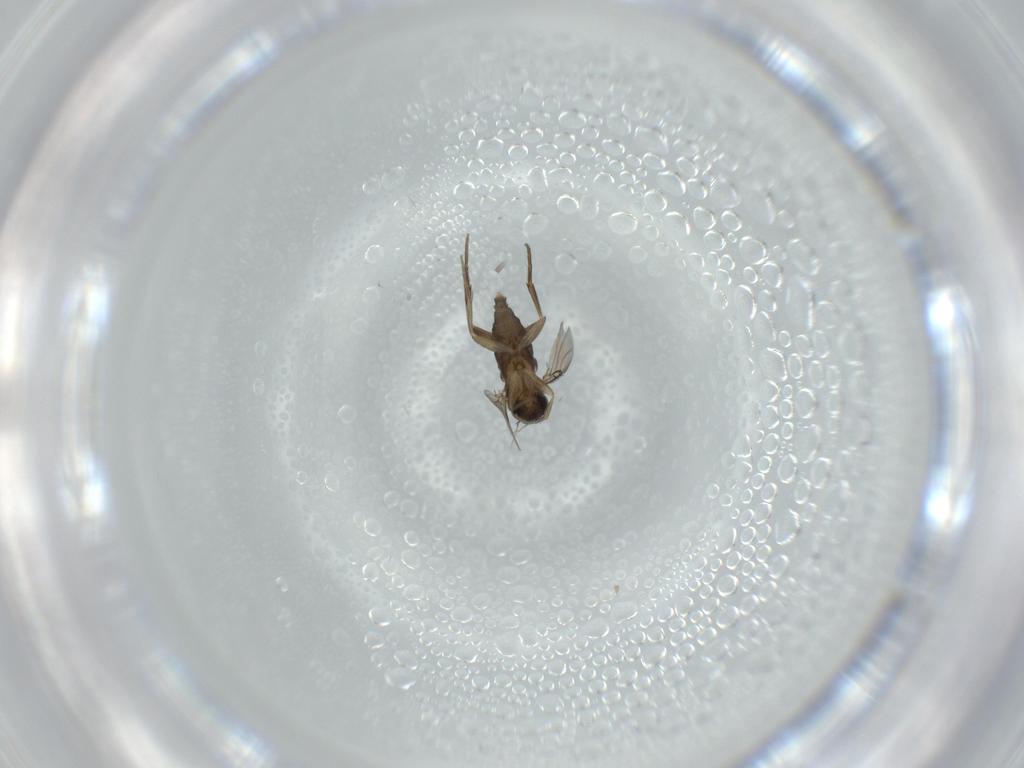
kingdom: Animalia
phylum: Arthropoda
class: Insecta
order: Diptera
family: Phoridae
